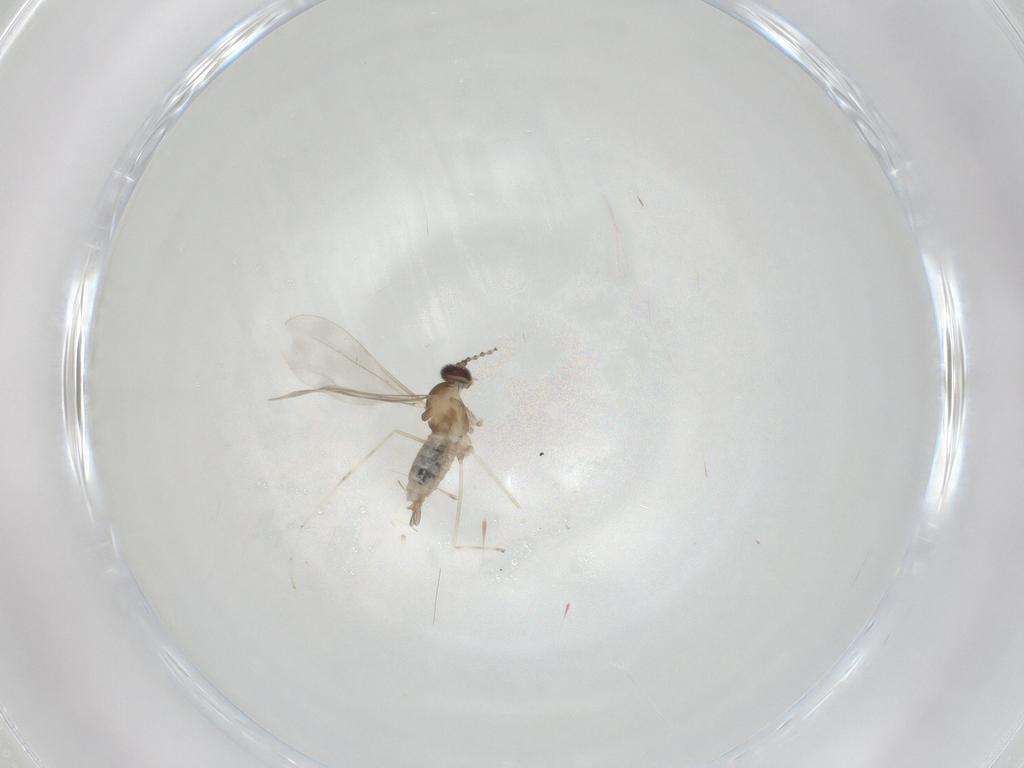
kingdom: Animalia
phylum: Arthropoda
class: Insecta
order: Diptera
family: Cecidomyiidae
